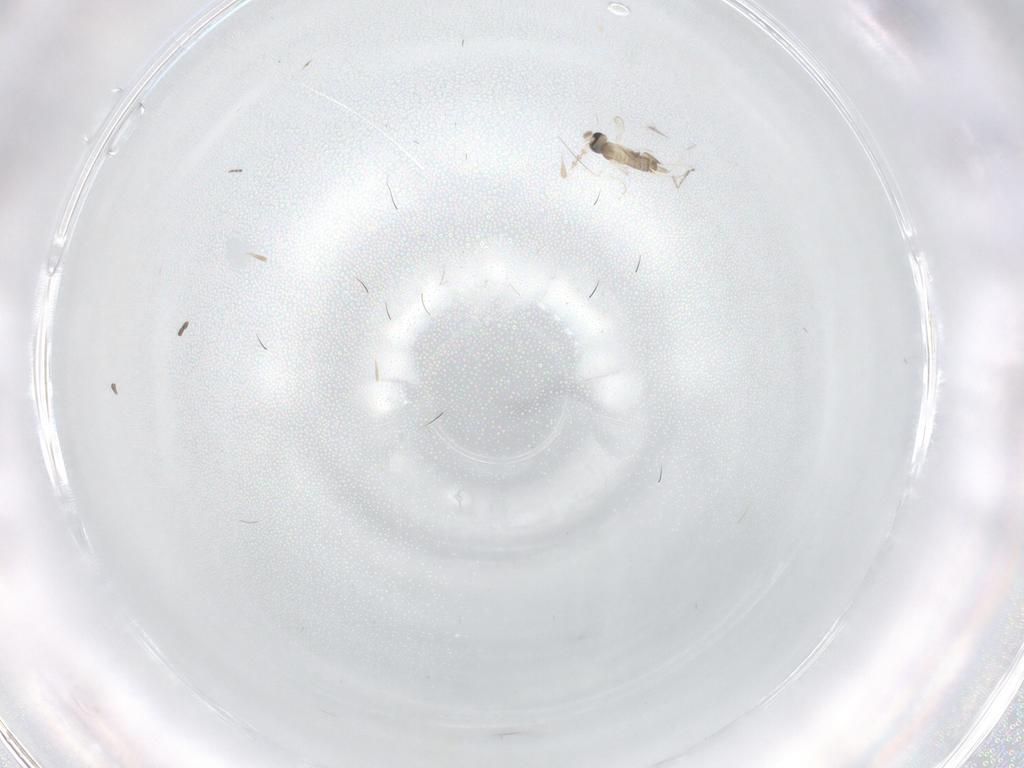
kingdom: Animalia
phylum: Arthropoda
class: Insecta
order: Diptera
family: Cecidomyiidae
